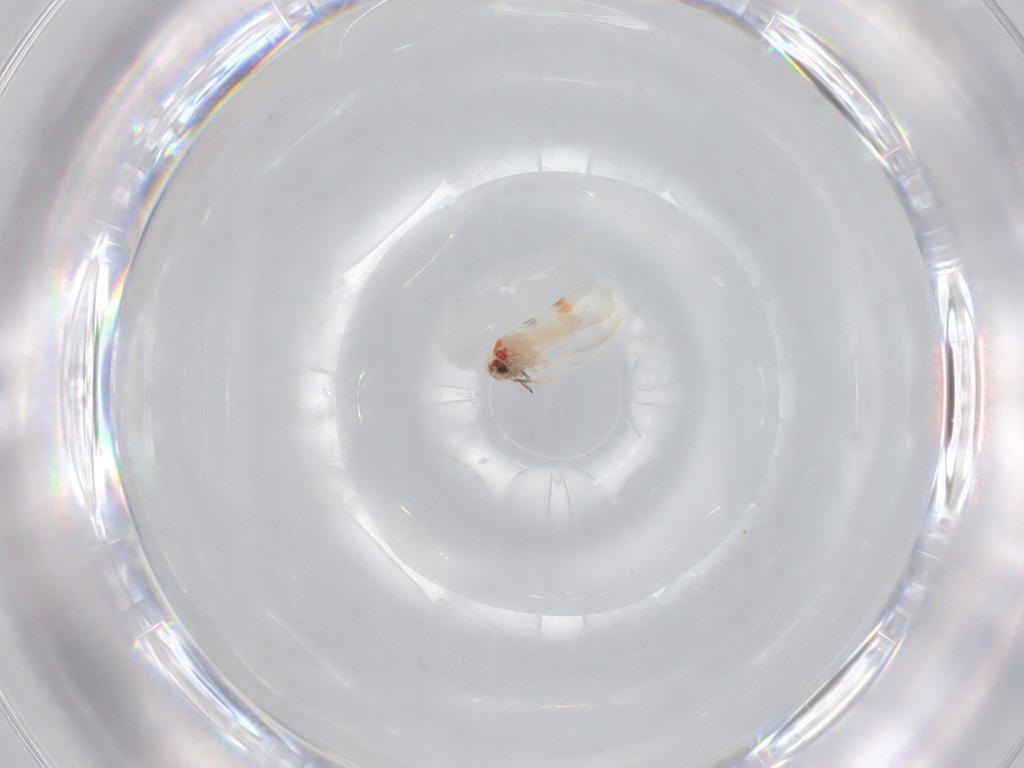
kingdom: Animalia
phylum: Arthropoda
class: Insecta
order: Hemiptera
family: Aleyrodidae
